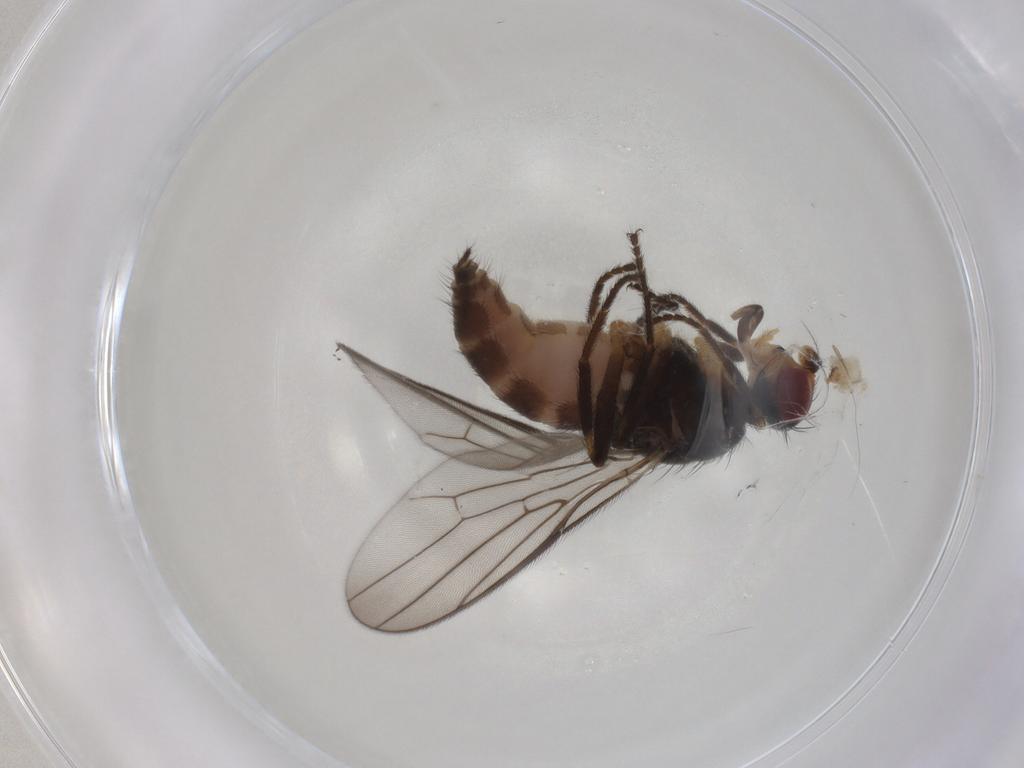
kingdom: Animalia
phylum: Arthropoda
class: Insecta
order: Diptera
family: Chloropidae
